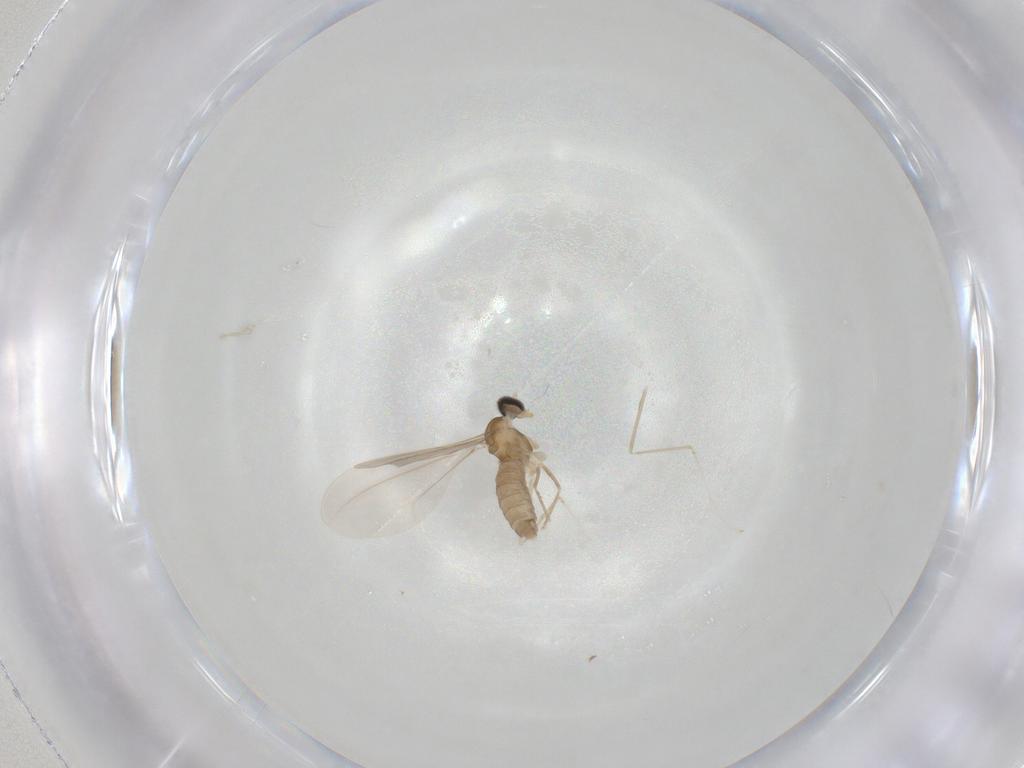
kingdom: Animalia
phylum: Arthropoda
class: Insecta
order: Diptera
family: Cecidomyiidae
